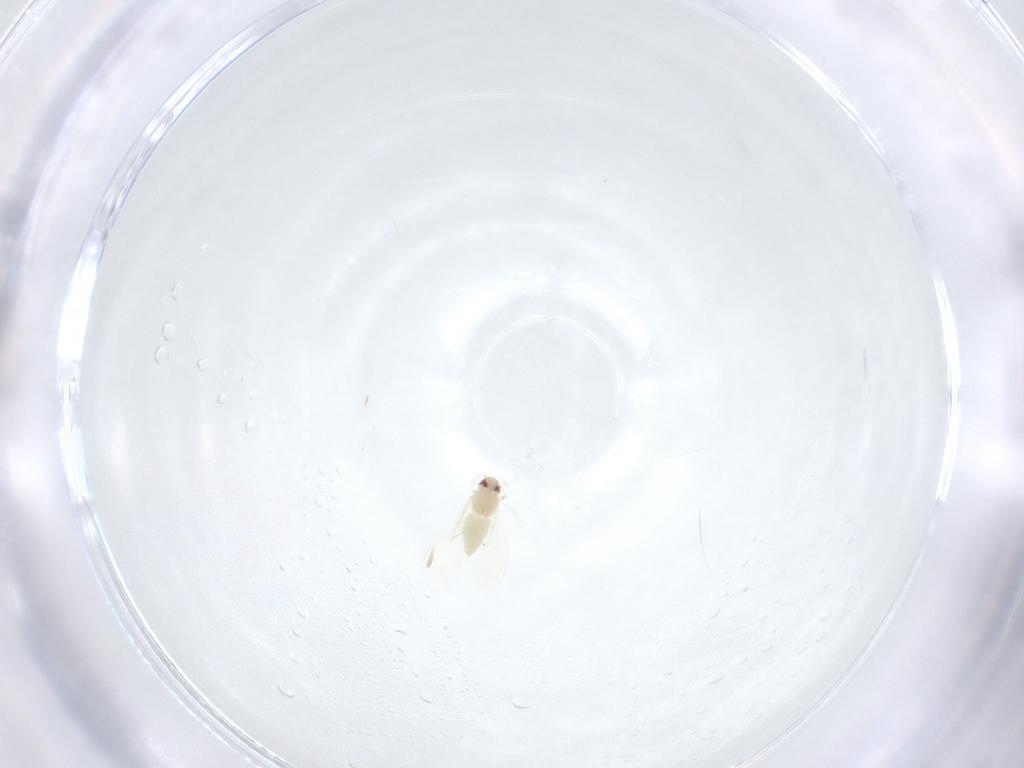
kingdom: Animalia
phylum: Arthropoda
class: Insecta
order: Hemiptera
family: Aleyrodidae
